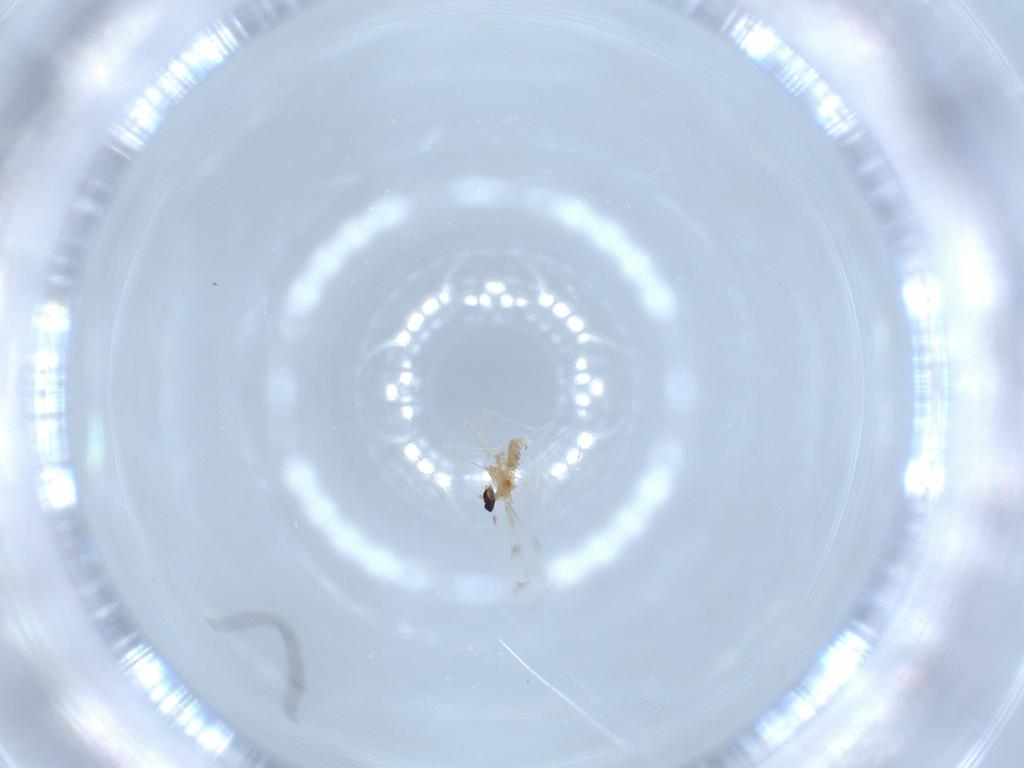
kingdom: Animalia
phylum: Arthropoda
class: Insecta
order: Diptera
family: Cecidomyiidae
